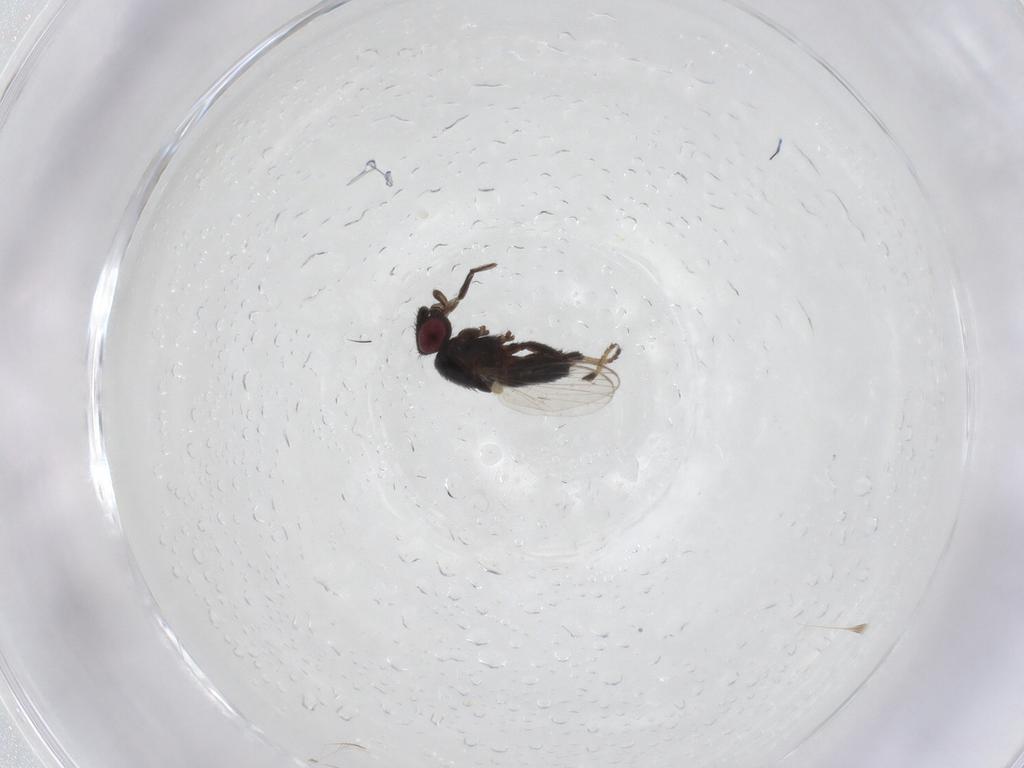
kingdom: Animalia
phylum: Arthropoda
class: Insecta
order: Diptera
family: Milichiidae
